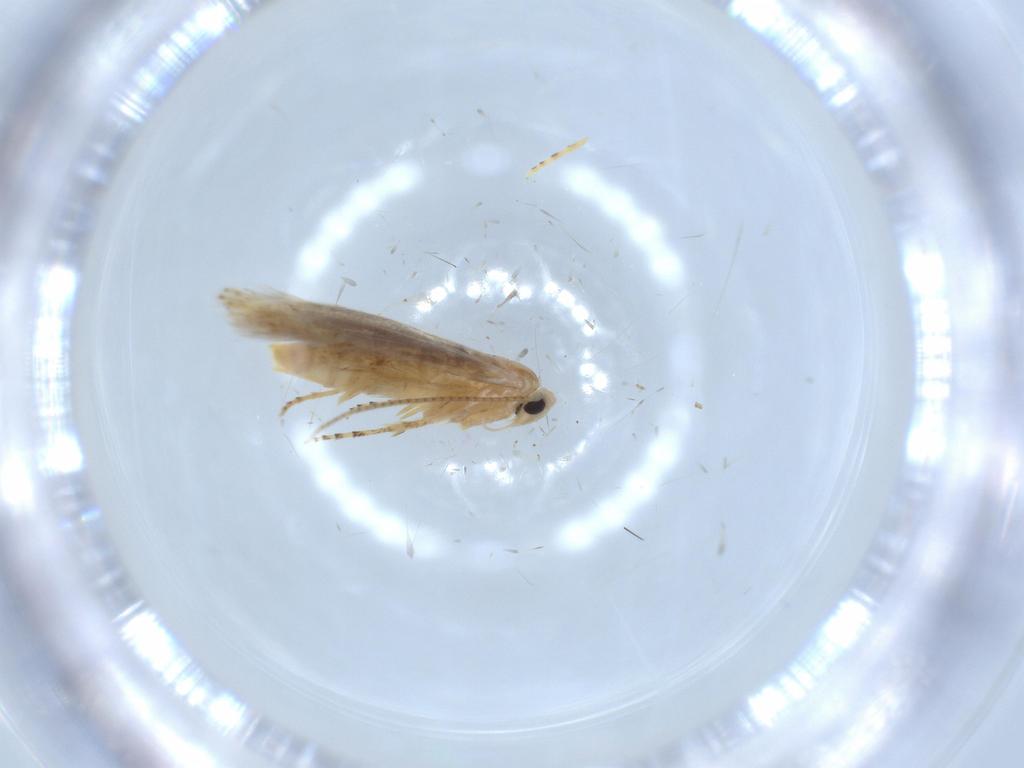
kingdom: Animalia
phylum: Arthropoda
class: Insecta
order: Lepidoptera
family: Bucculatricidae
